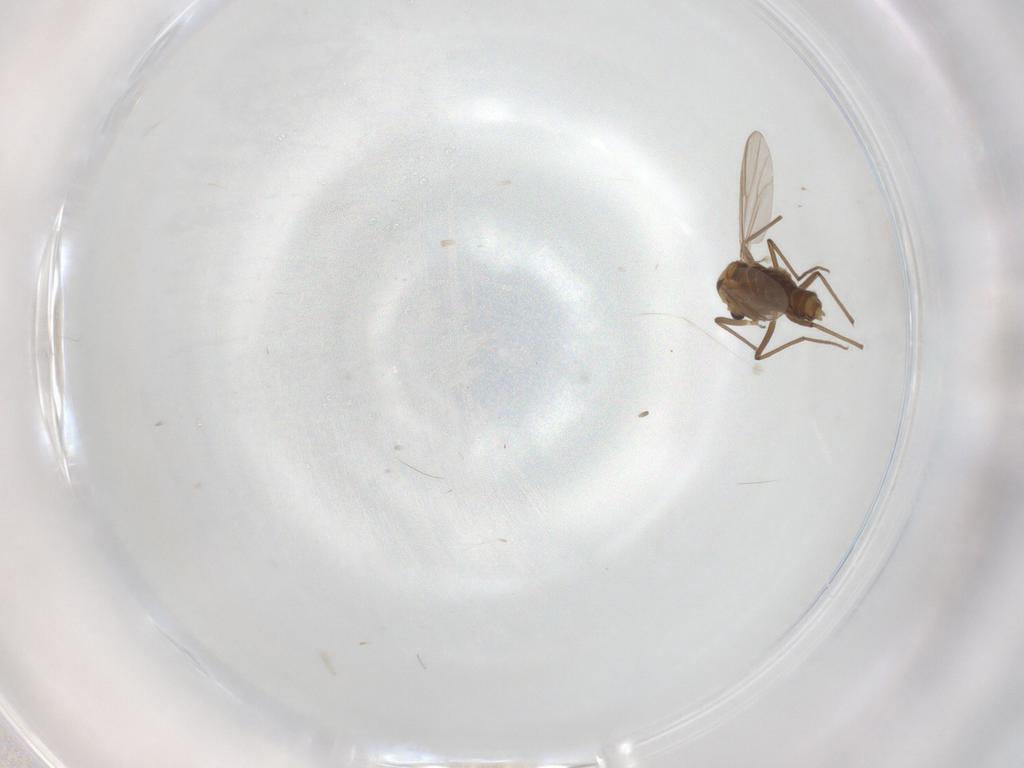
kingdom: Animalia
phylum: Arthropoda
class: Insecta
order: Diptera
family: Chironomidae
